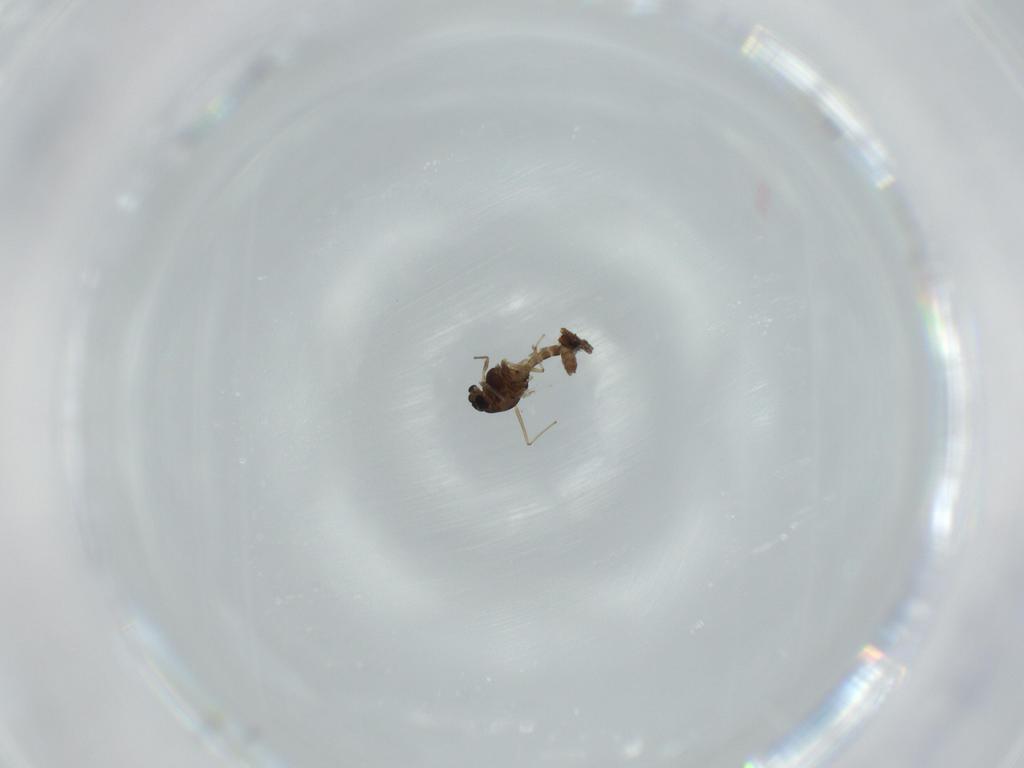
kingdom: Animalia
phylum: Arthropoda
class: Insecta
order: Diptera
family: Chironomidae
